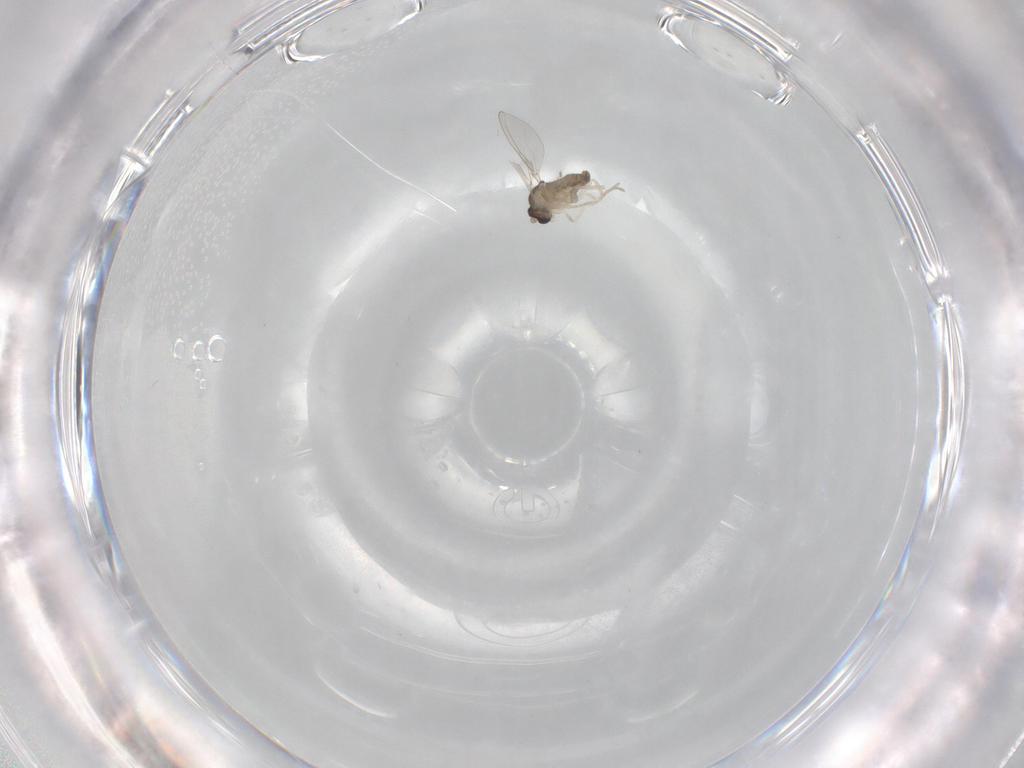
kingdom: Animalia
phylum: Arthropoda
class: Insecta
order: Diptera
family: Cecidomyiidae
